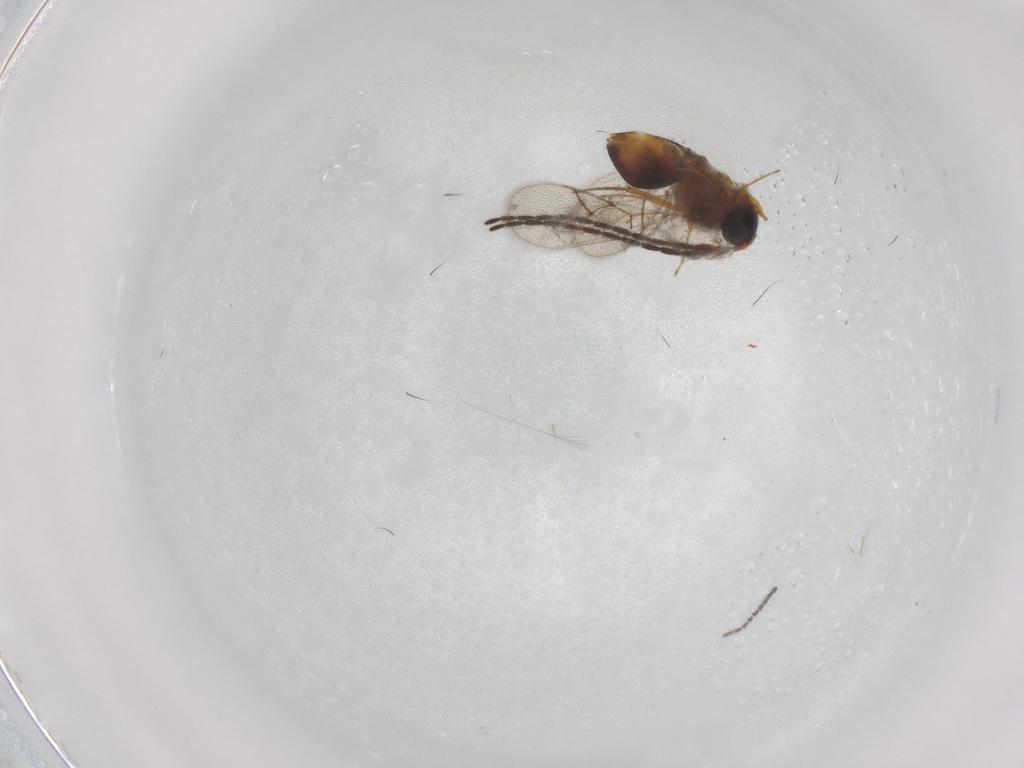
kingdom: Animalia
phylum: Arthropoda
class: Insecta
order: Hymenoptera
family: Figitidae
